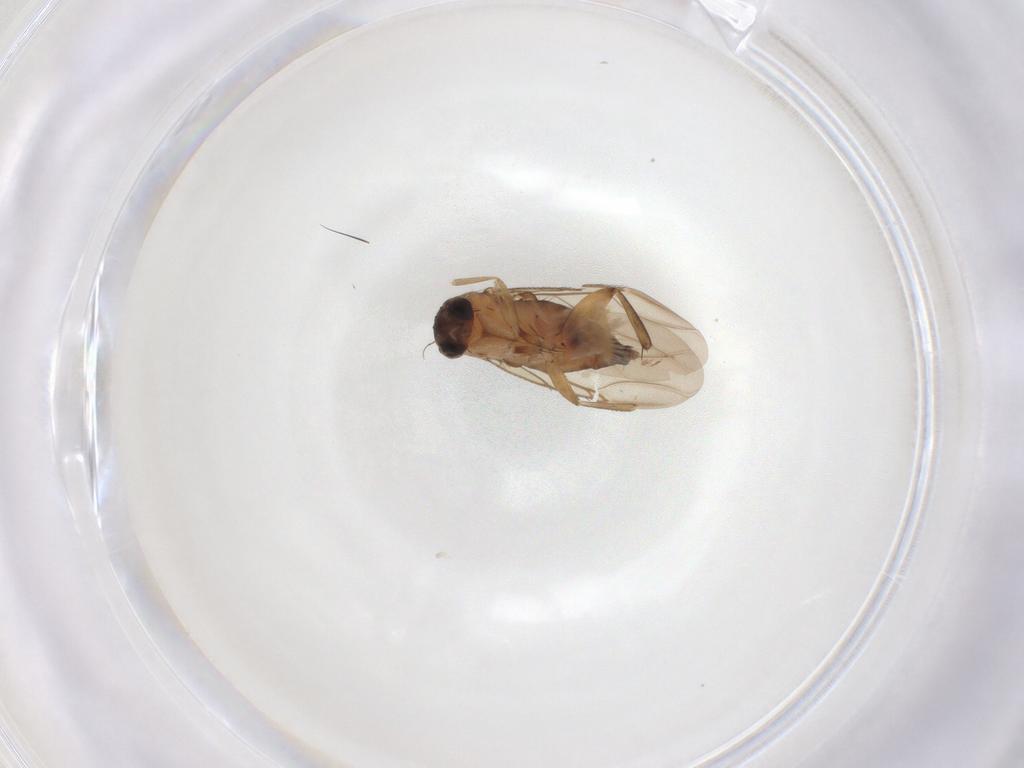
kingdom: Animalia
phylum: Arthropoda
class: Insecta
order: Diptera
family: Phoridae
